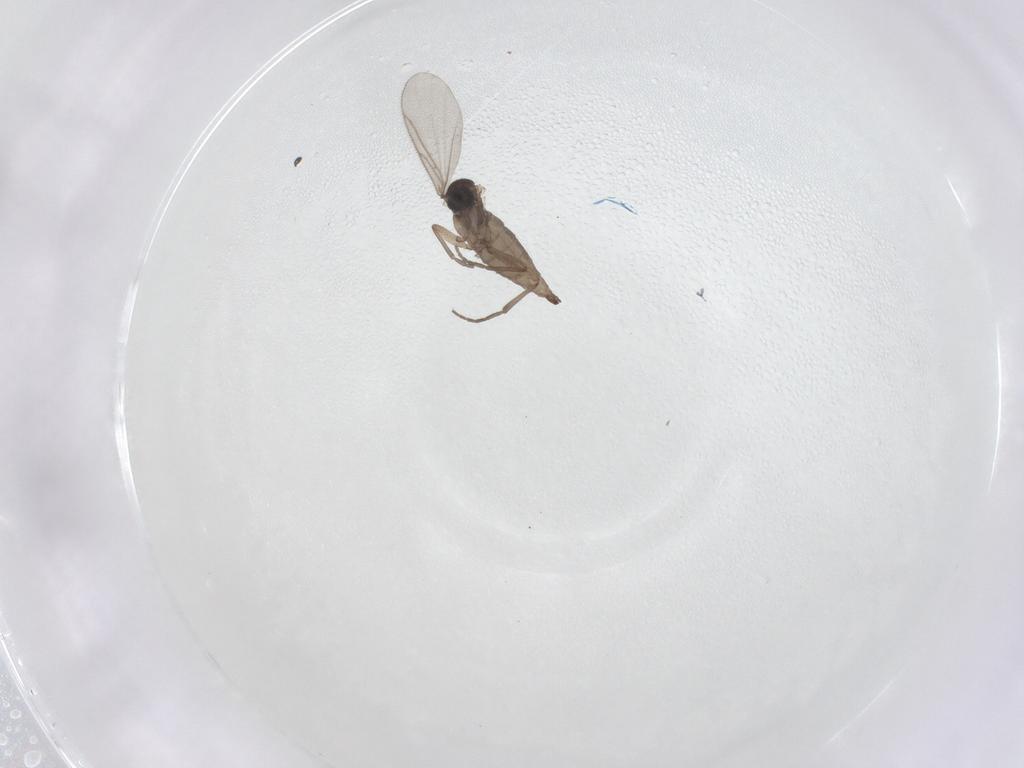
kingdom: Animalia
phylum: Arthropoda
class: Insecta
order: Diptera
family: Sciaridae
